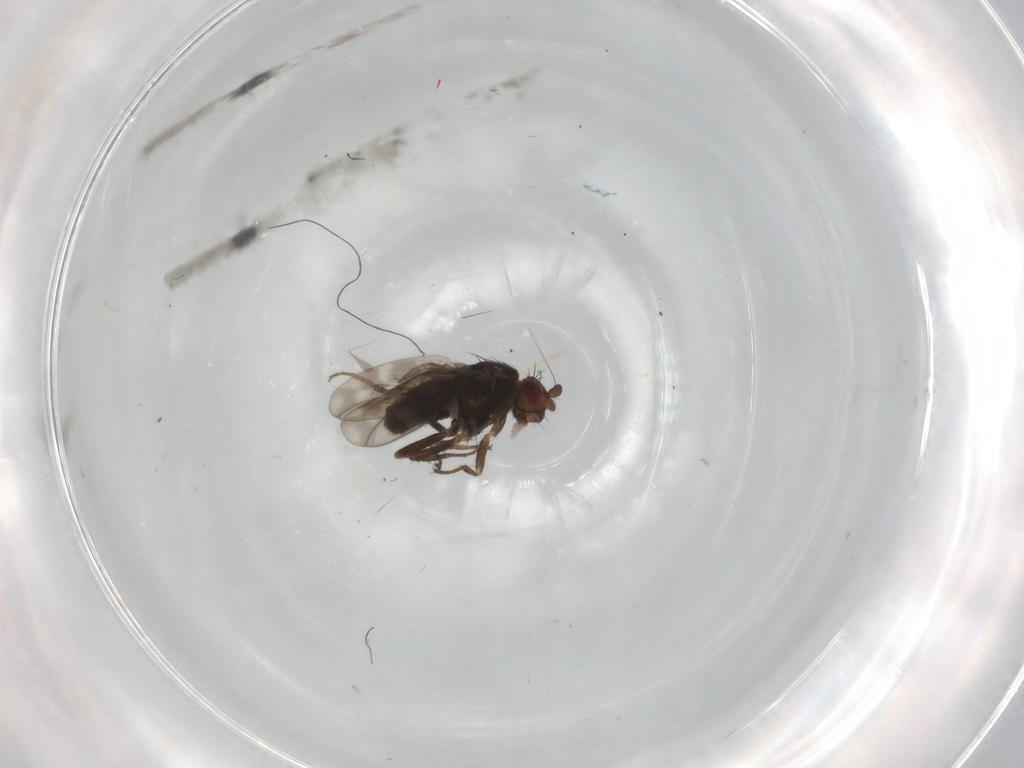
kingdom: Animalia
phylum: Arthropoda
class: Insecta
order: Diptera
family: Sphaeroceridae
